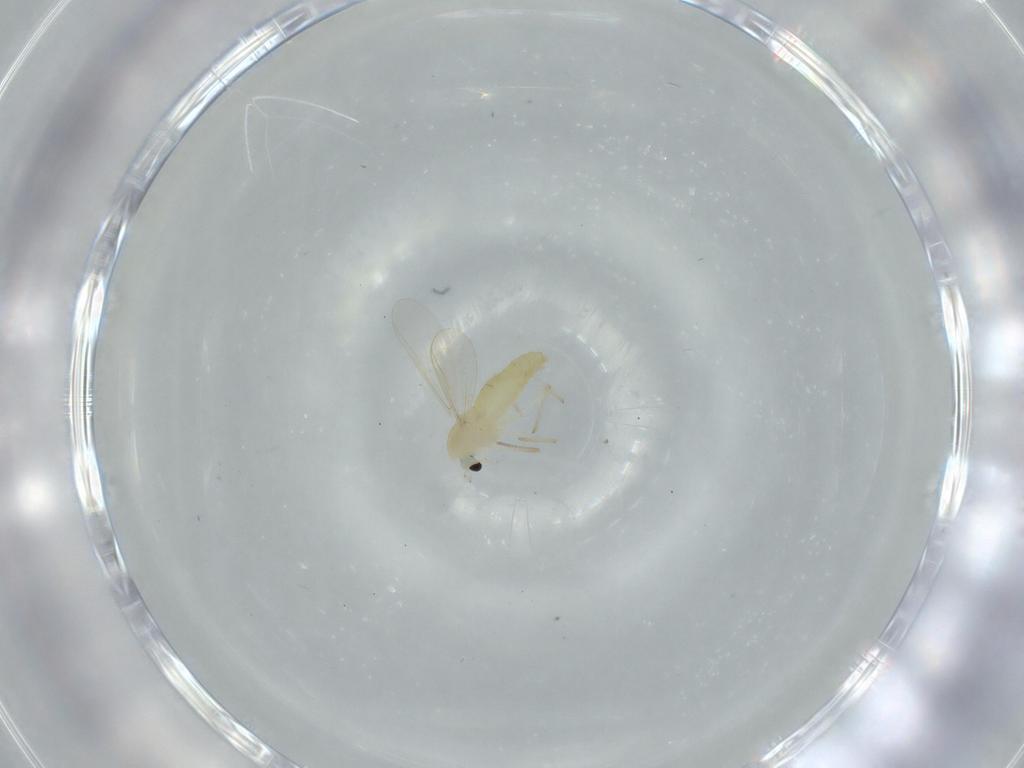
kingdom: Animalia
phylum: Arthropoda
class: Insecta
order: Diptera
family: Chironomidae
